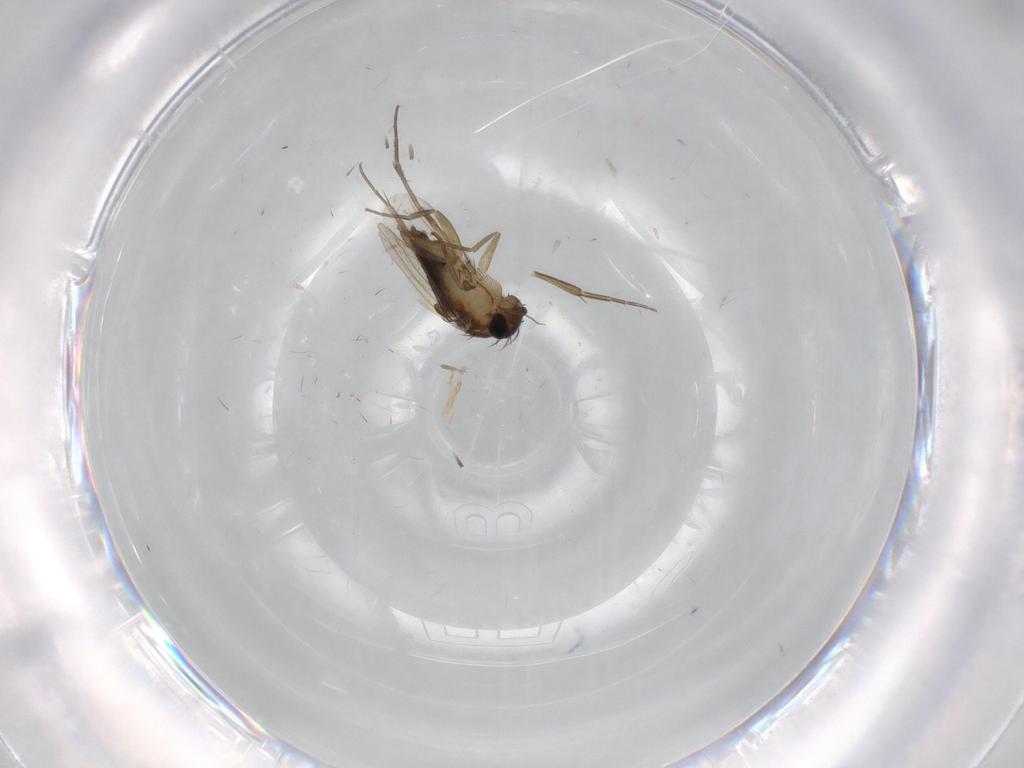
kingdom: Animalia
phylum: Arthropoda
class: Insecta
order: Diptera
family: Phoridae
